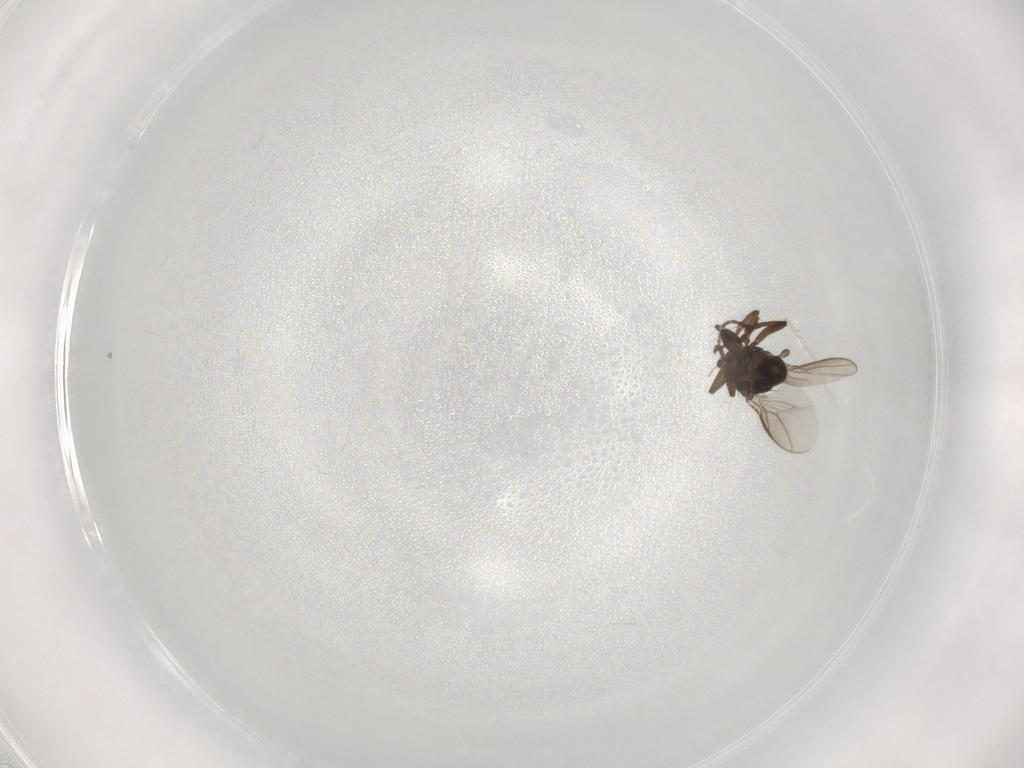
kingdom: Animalia
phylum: Arthropoda
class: Insecta
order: Diptera
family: Sphaeroceridae
